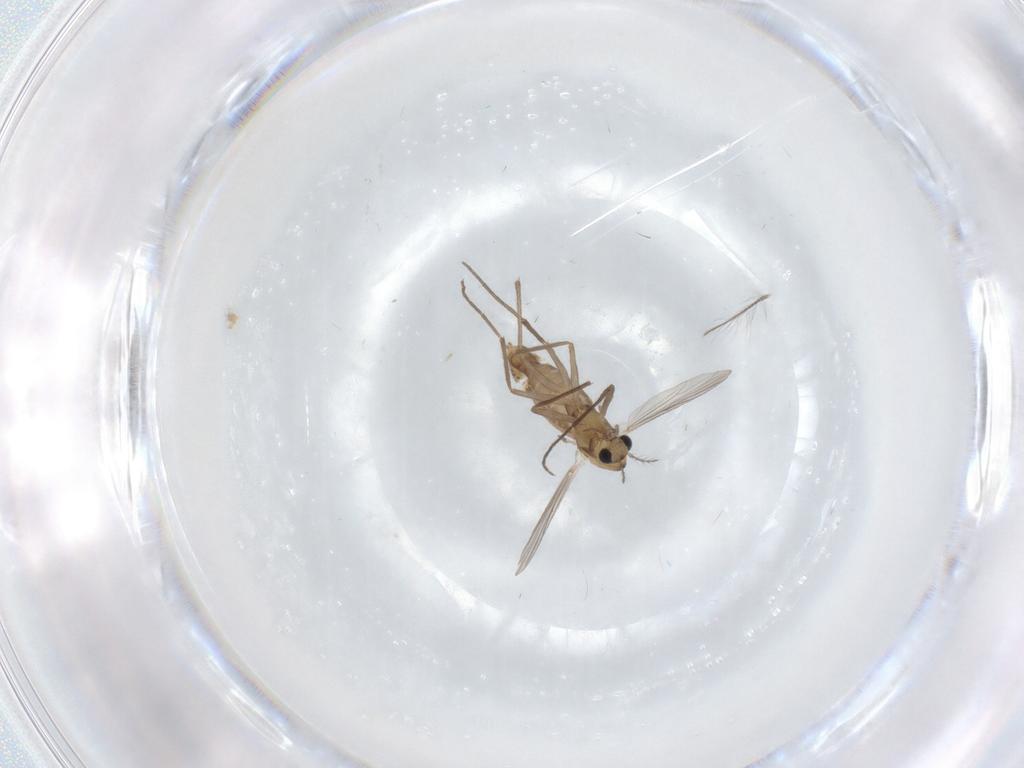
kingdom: Animalia
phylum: Arthropoda
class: Insecta
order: Diptera
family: Chironomidae
